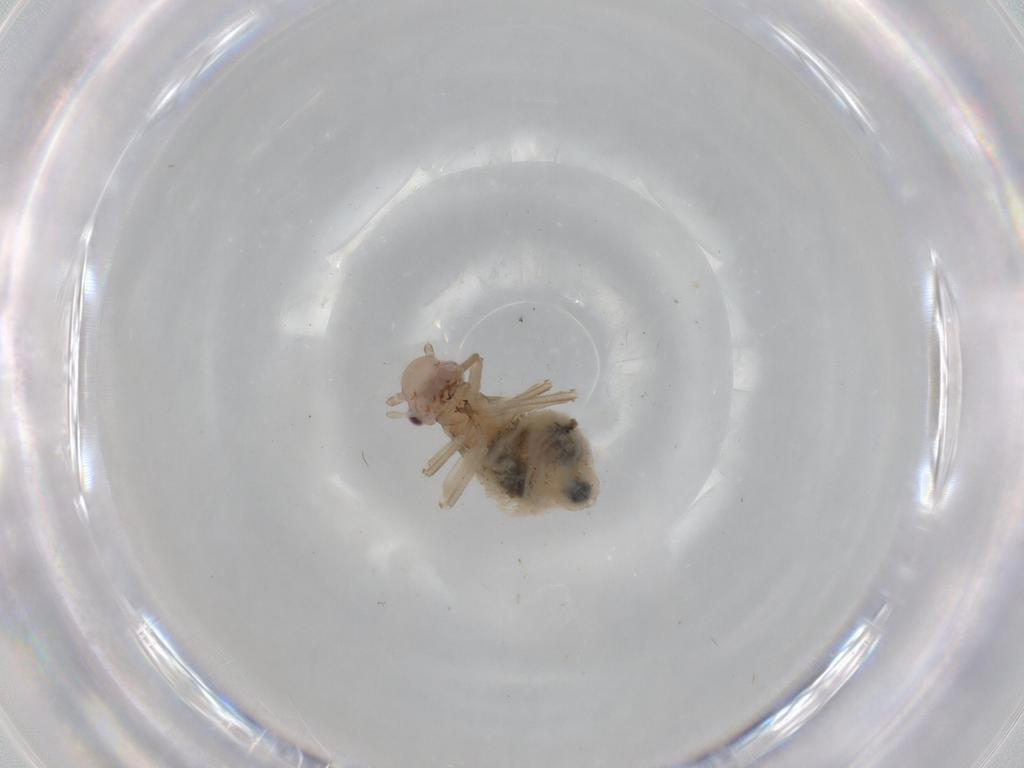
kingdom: Animalia
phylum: Arthropoda
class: Insecta
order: Psocodea
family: Stenopsocidae
